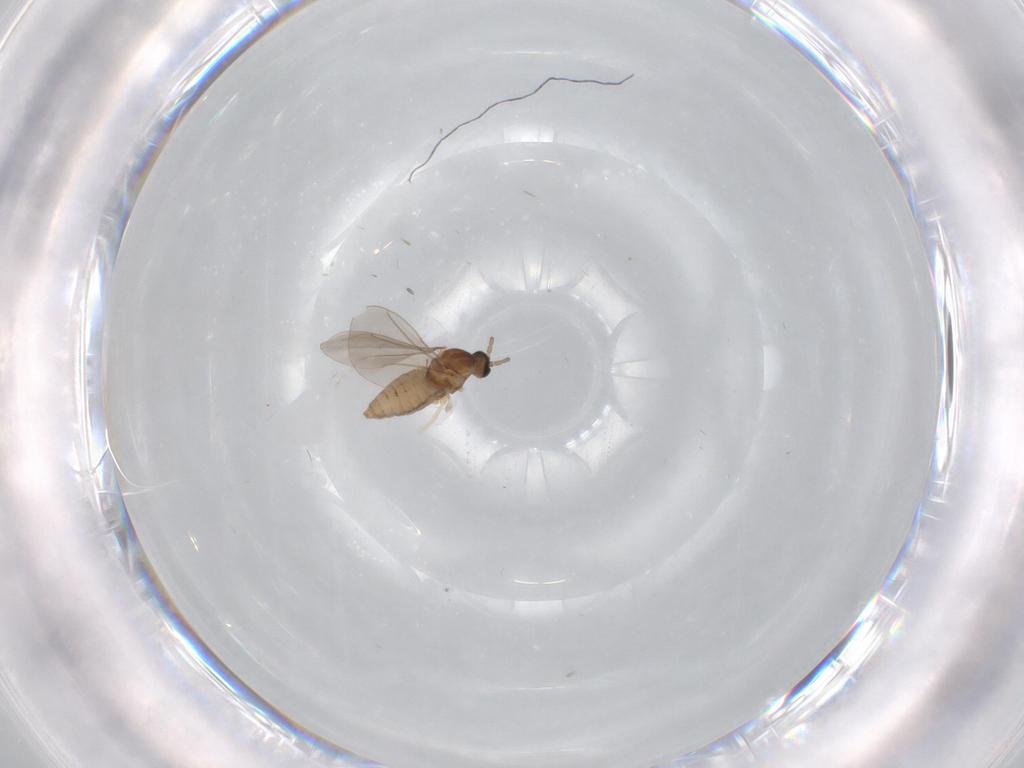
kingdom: Animalia
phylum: Arthropoda
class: Insecta
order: Diptera
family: Cecidomyiidae
